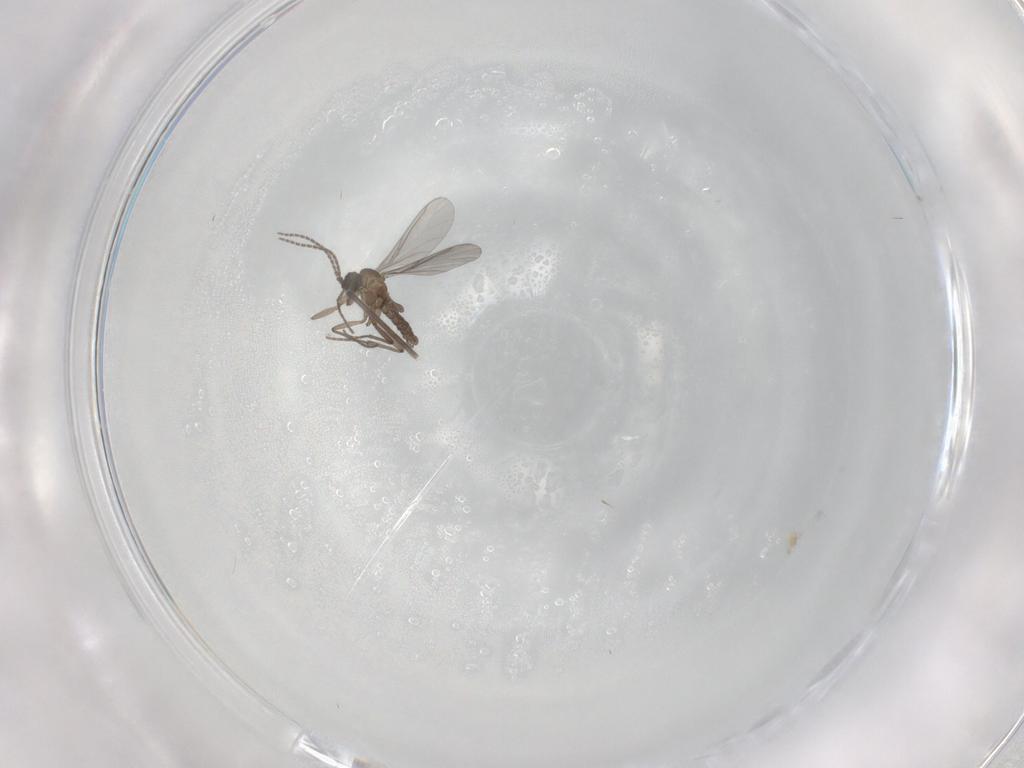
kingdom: Animalia
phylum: Arthropoda
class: Insecta
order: Diptera
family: Sciaridae
